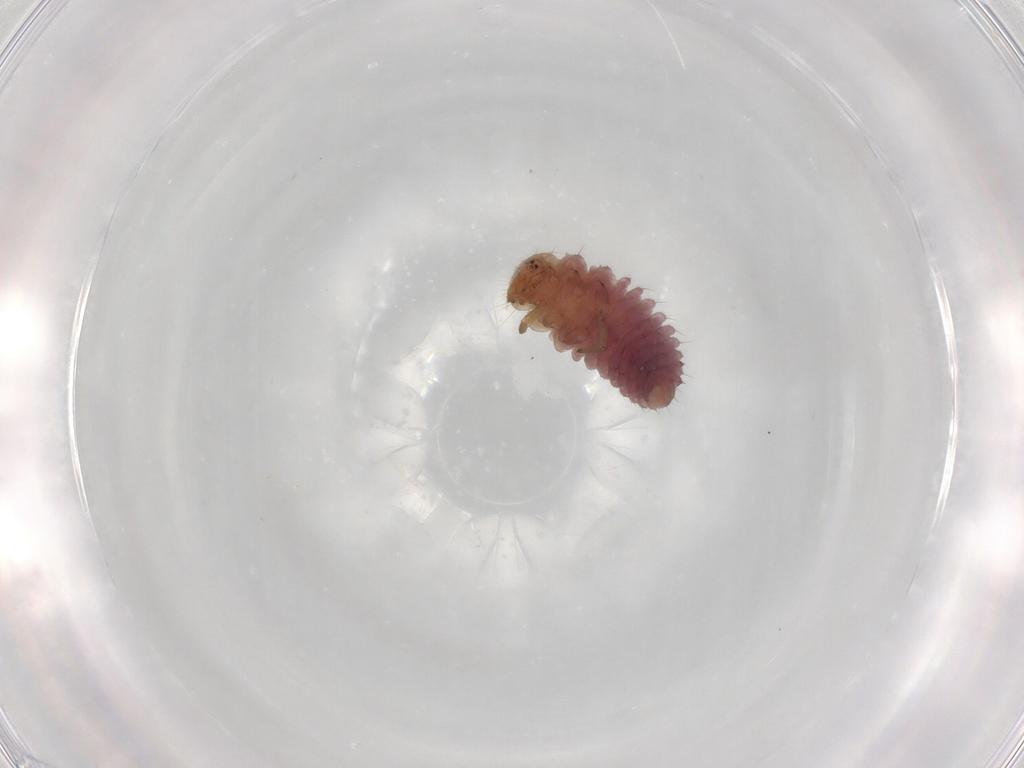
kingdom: Animalia
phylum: Arthropoda
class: Insecta
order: Coleoptera
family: Coccinellidae
